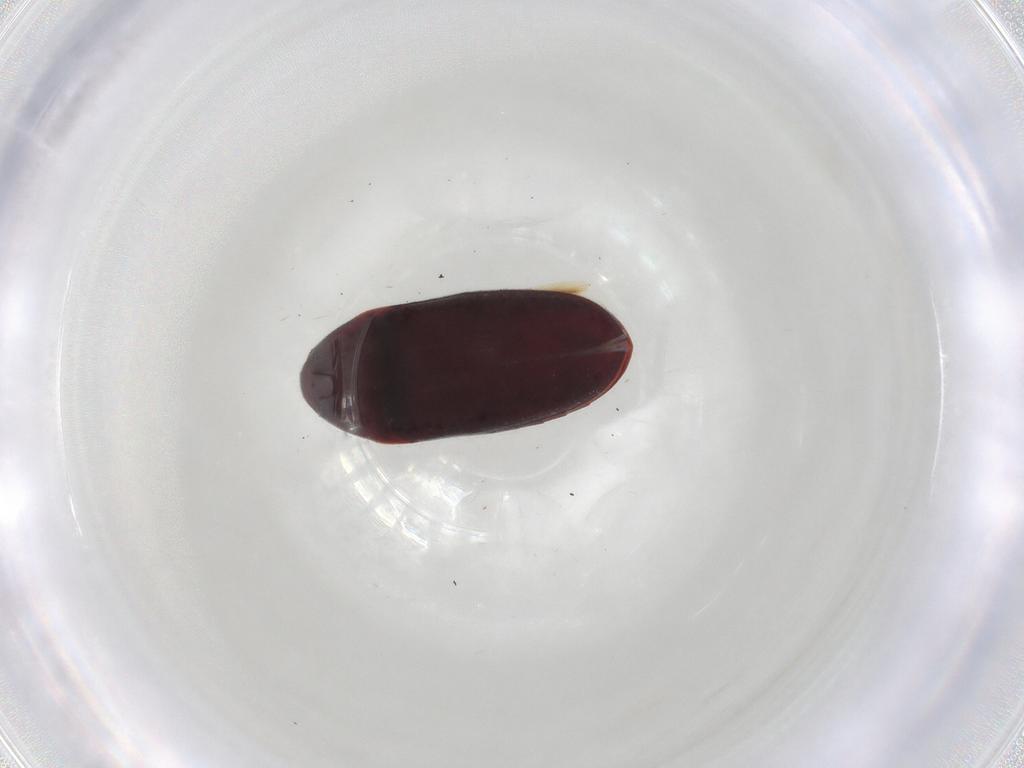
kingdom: Animalia
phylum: Arthropoda
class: Insecta
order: Coleoptera
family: Throscidae
